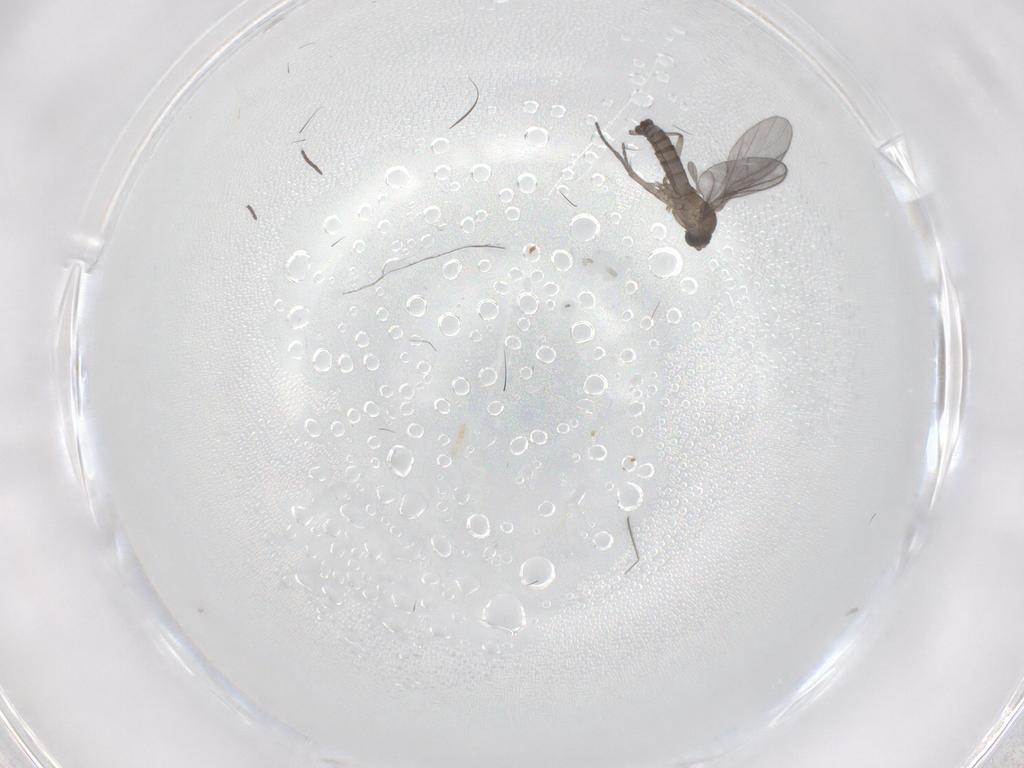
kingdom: Animalia
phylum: Arthropoda
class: Insecta
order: Diptera
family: Sciaridae
